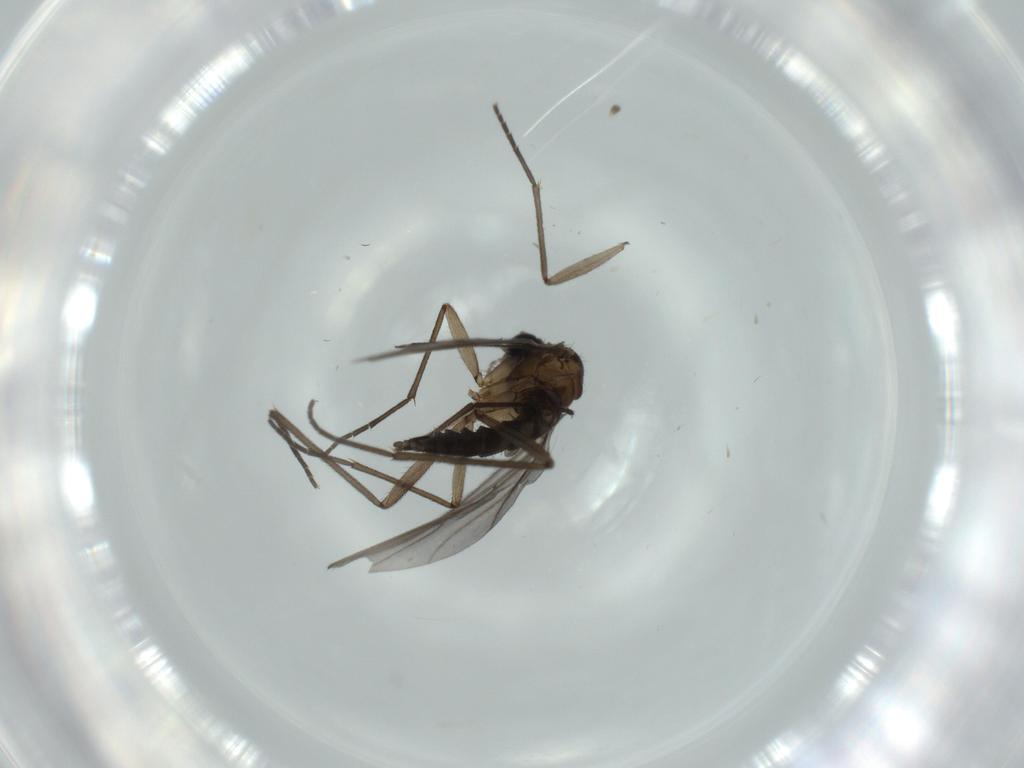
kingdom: Animalia
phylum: Arthropoda
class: Insecta
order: Diptera
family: Sciaridae
